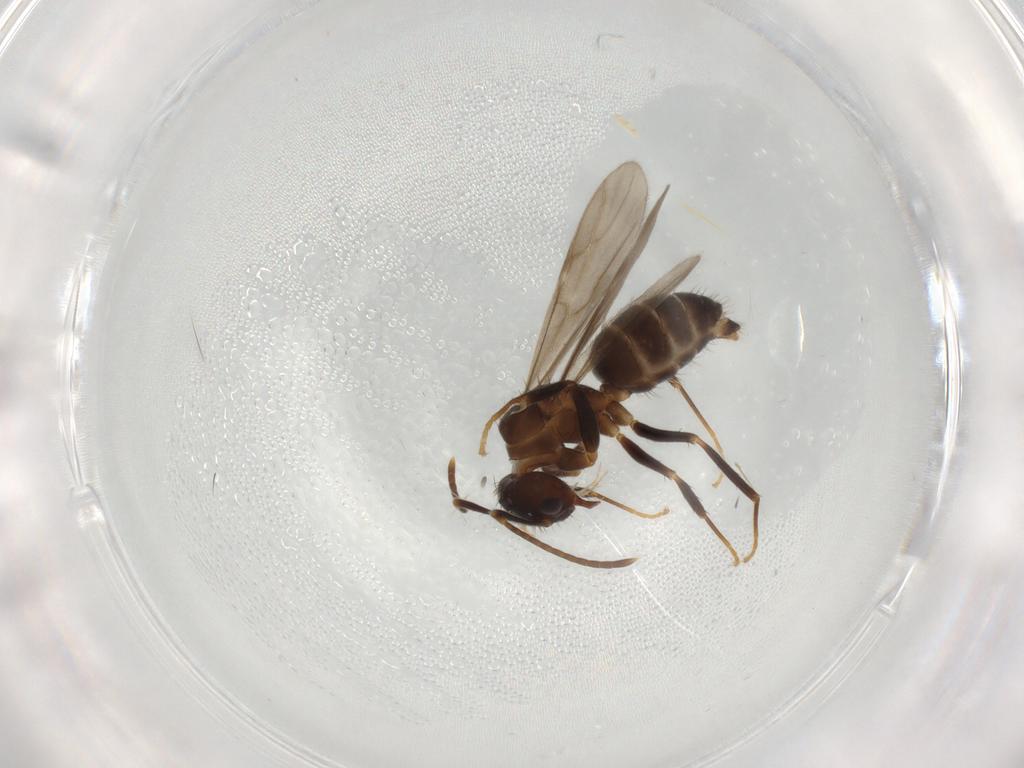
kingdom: Animalia
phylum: Arthropoda
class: Insecta
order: Hymenoptera
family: Formicidae
